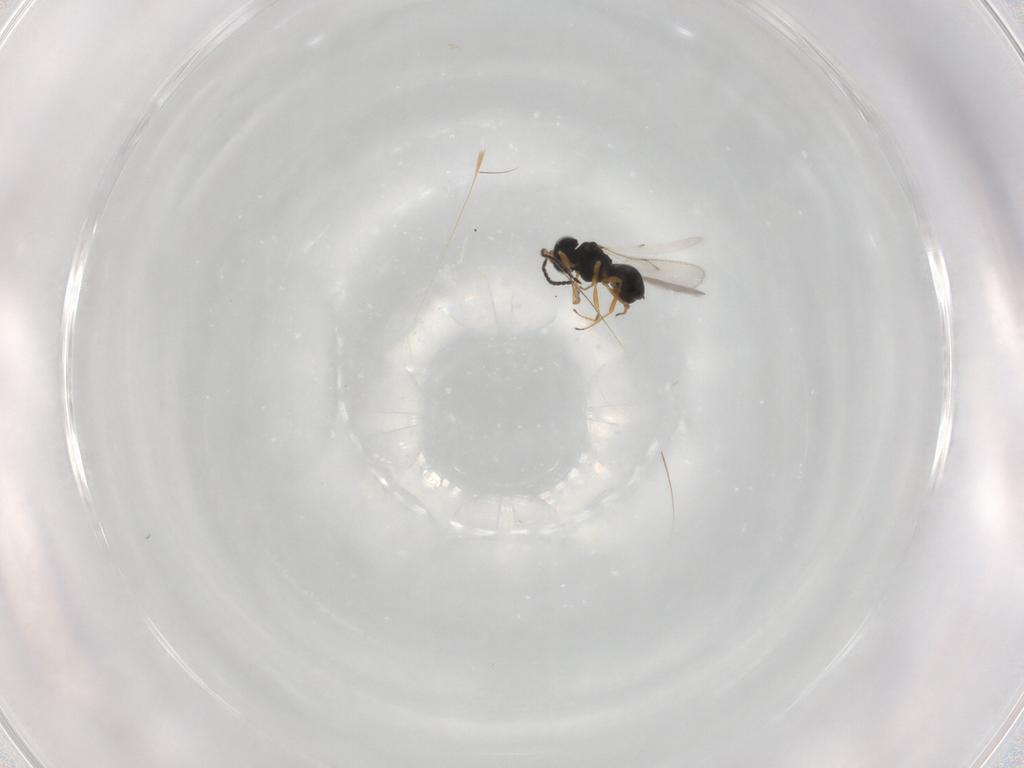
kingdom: Animalia
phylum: Arthropoda
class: Insecta
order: Hymenoptera
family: Scelionidae
